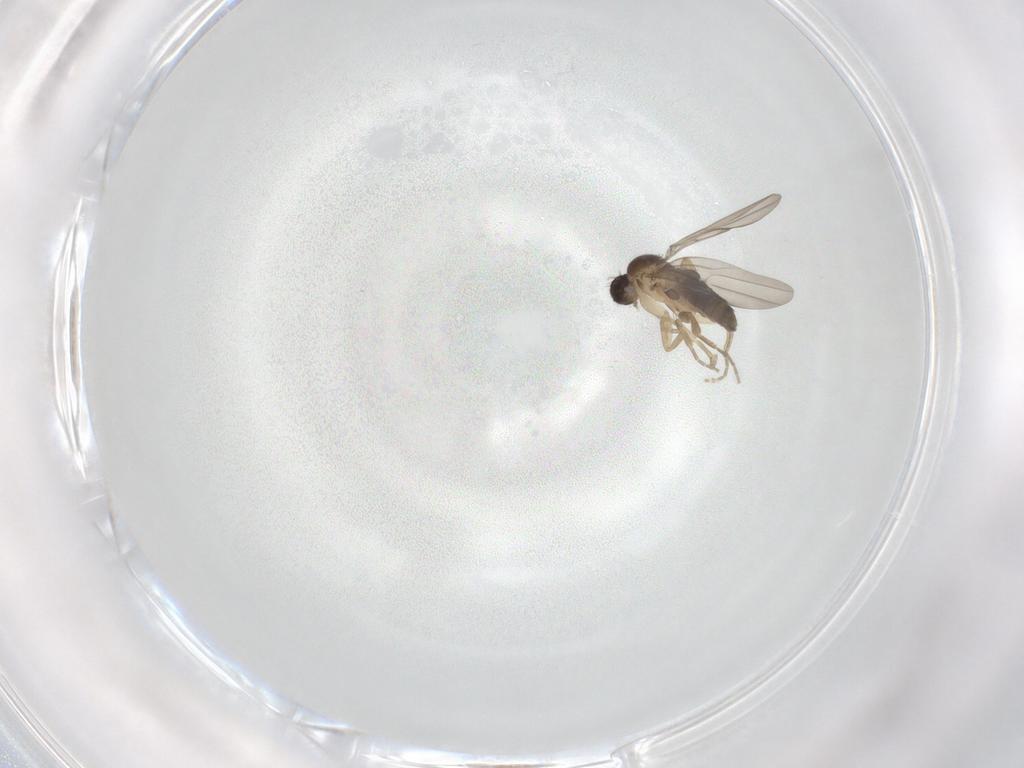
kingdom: Animalia
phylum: Arthropoda
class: Insecta
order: Diptera
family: Phoridae
